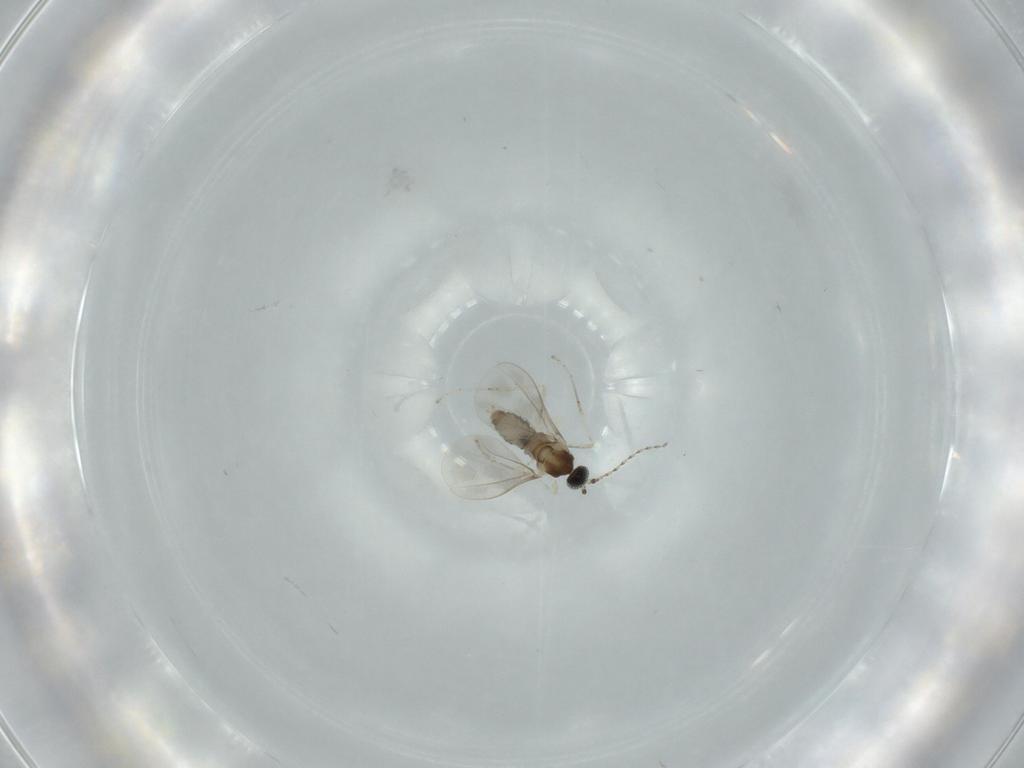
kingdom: Animalia
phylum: Arthropoda
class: Insecta
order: Diptera
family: Cecidomyiidae
